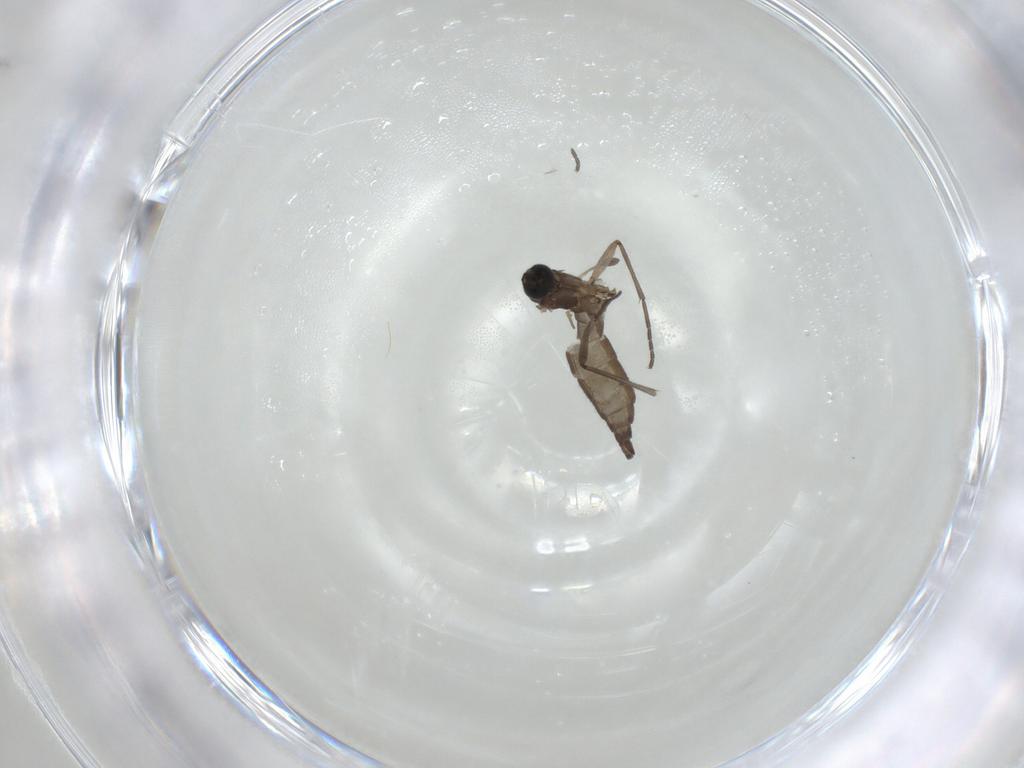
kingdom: Animalia
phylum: Arthropoda
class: Insecta
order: Diptera
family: Sciaridae
